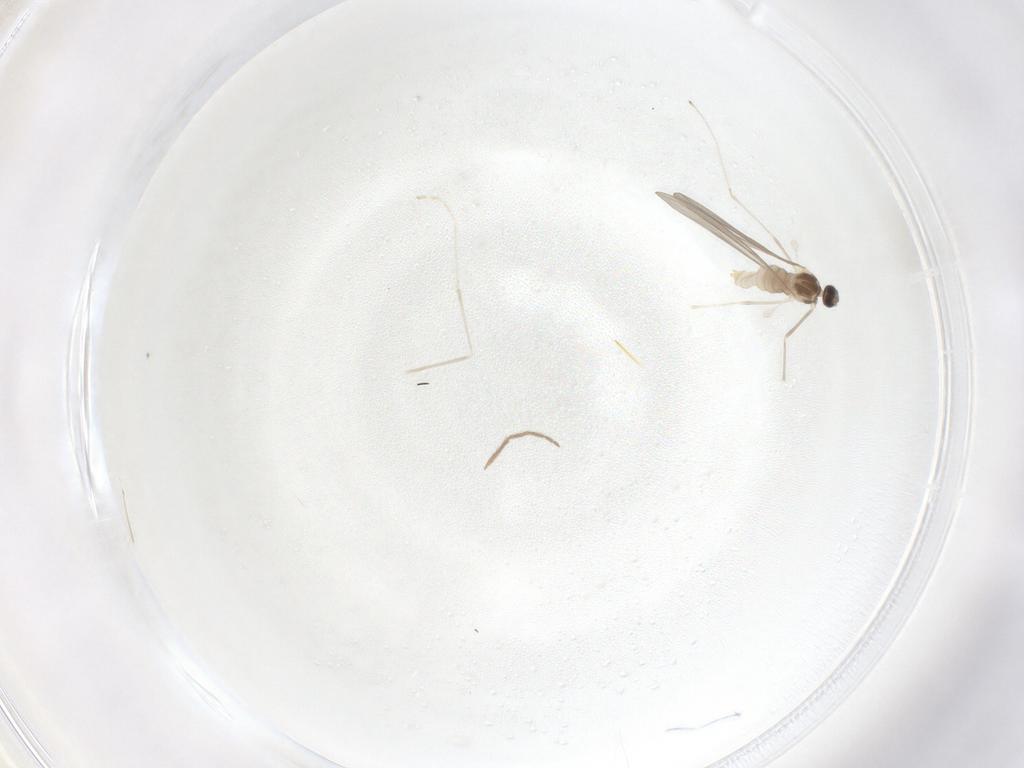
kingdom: Animalia
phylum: Arthropoda
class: Insecta
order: Diptera
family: Cecidomyiidae
